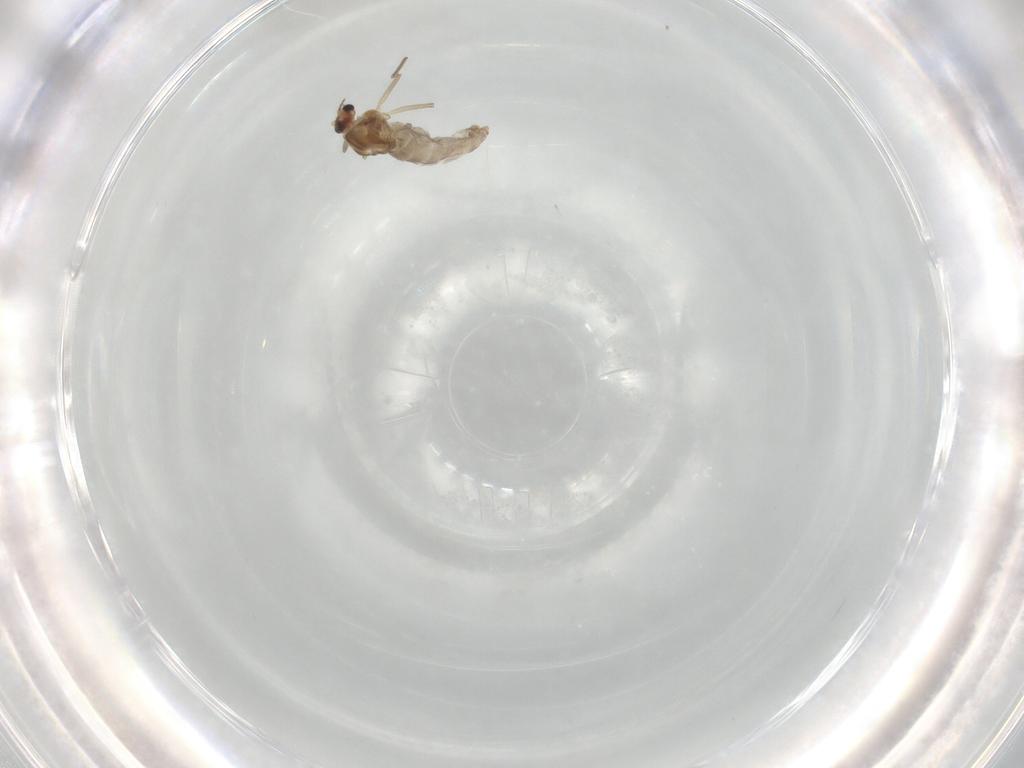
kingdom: Animalia
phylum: Arthropoda
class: Insecta
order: Diptera
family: Chironomidae
